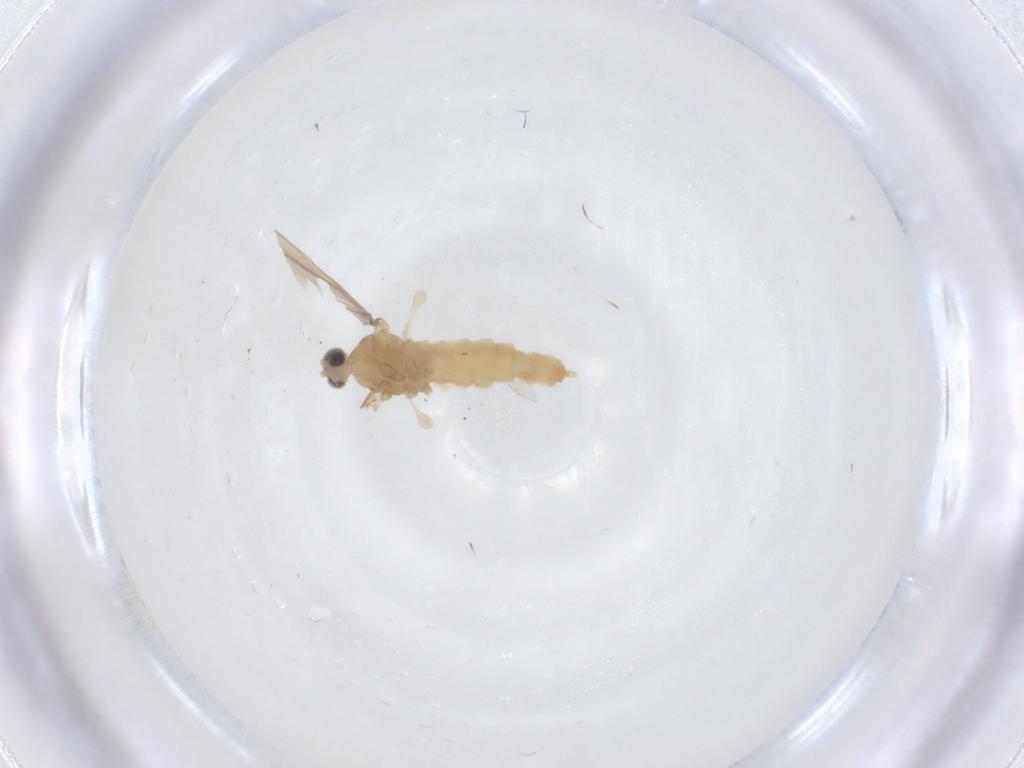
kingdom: Animalia
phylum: Arthropoda
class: Insecta
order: Diptera
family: Cecidomyiidae
